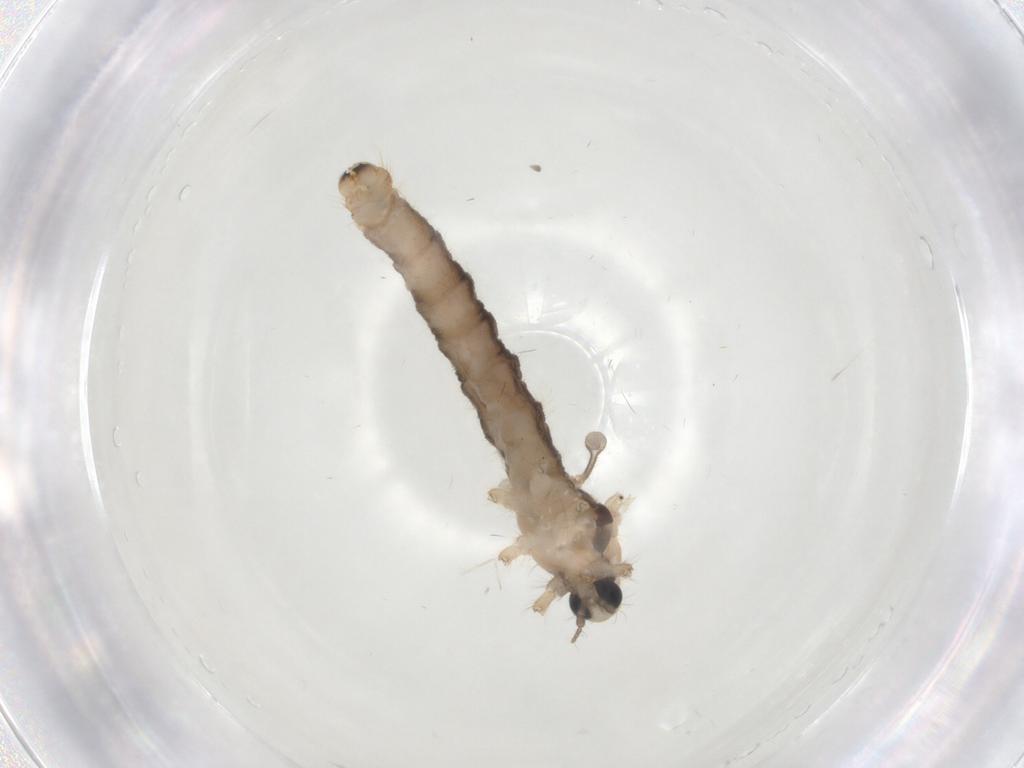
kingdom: Animalia
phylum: Arthropoda
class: Insecta
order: Diptera
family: Limoniidae
